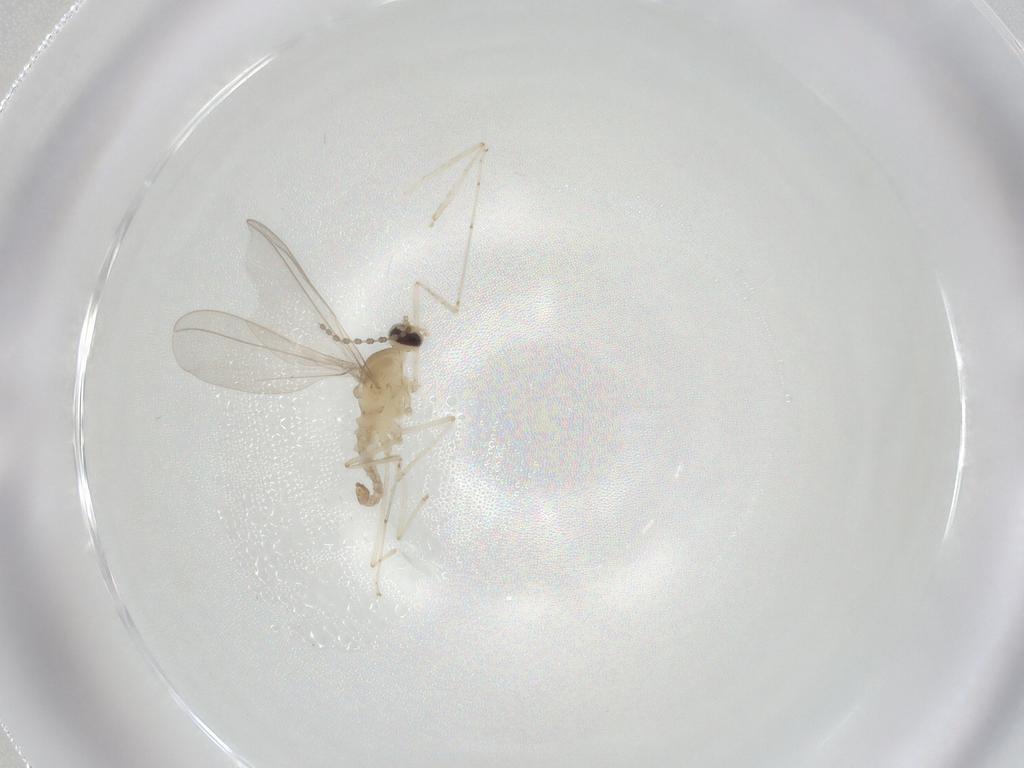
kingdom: Animalia
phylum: Arthropoda
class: Insecta
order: Diptera
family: Cecidomyiidae
